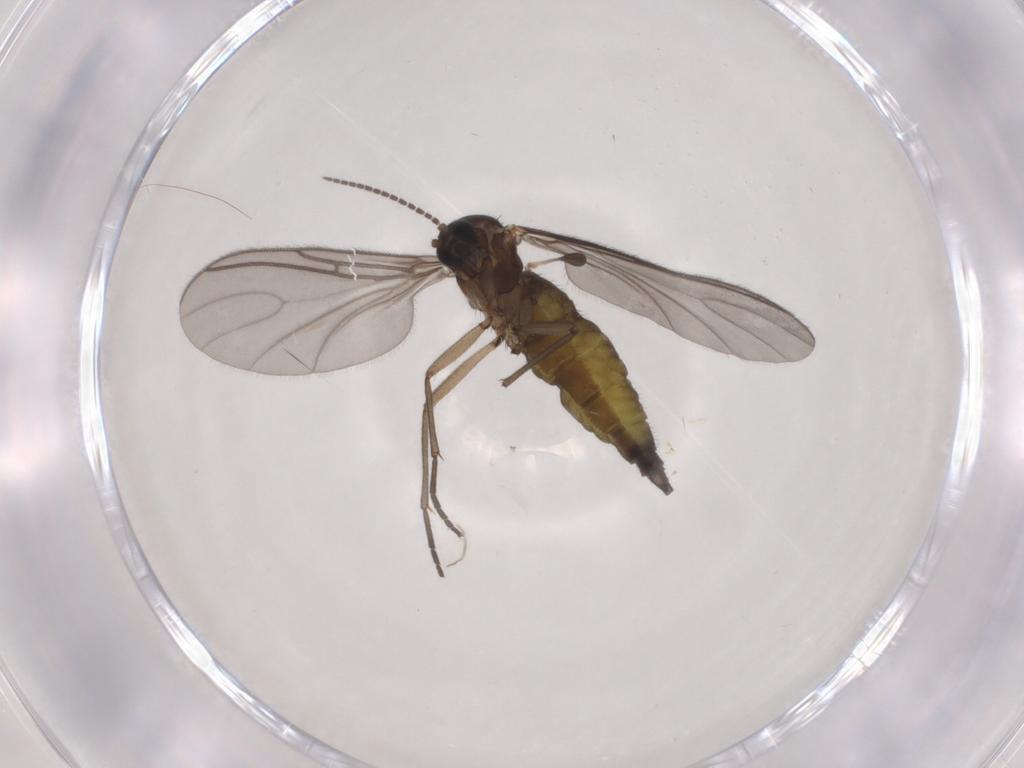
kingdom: Animalia
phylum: Arthropoda
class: Insecta
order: Diptera
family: Sciaridae
